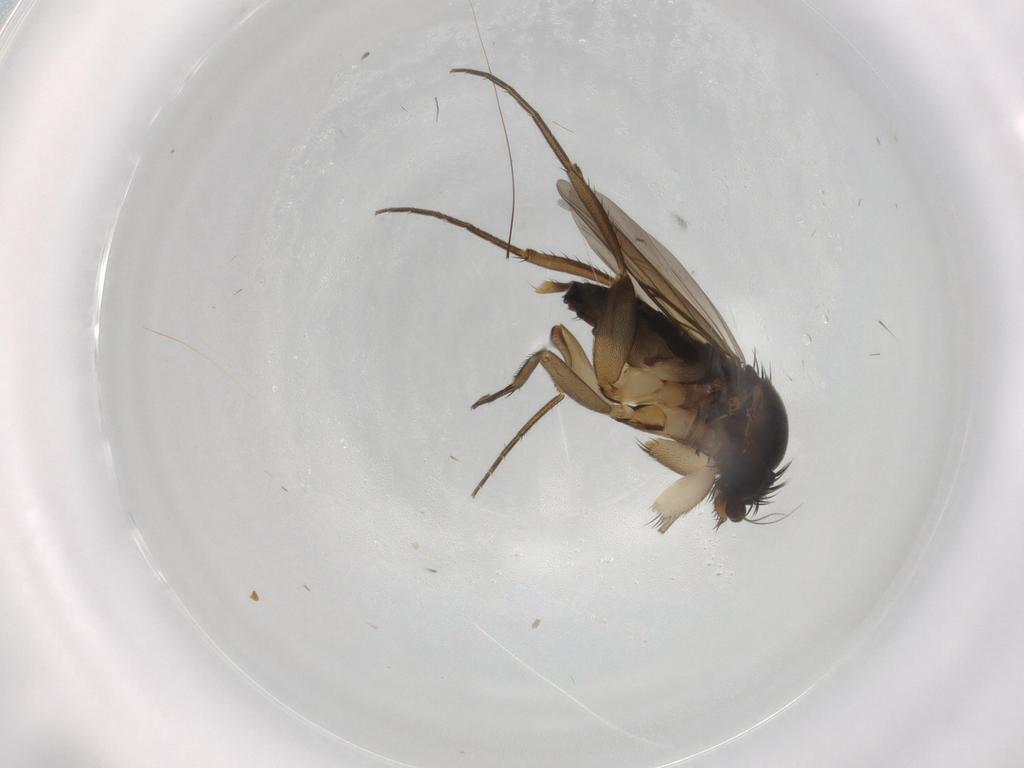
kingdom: Animalia
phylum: Arthropoda
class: Insecta
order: Diptera
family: Phoridae
